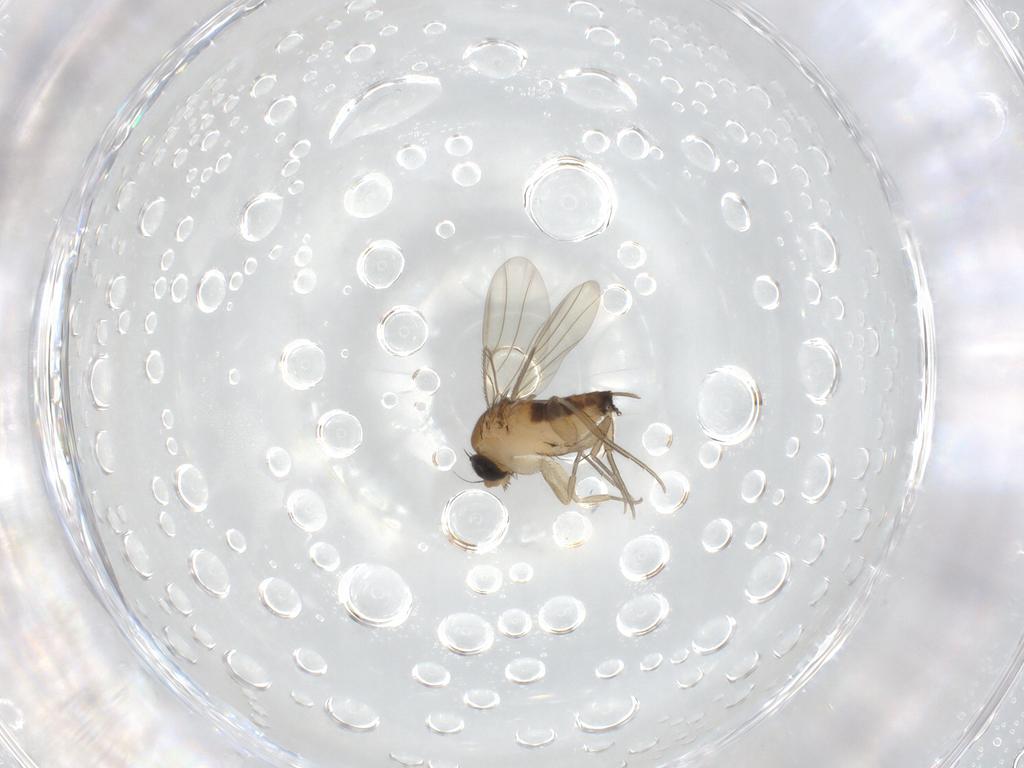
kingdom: Animalia
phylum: Arthropoda
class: Insecta
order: Diptera
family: Phoridae
